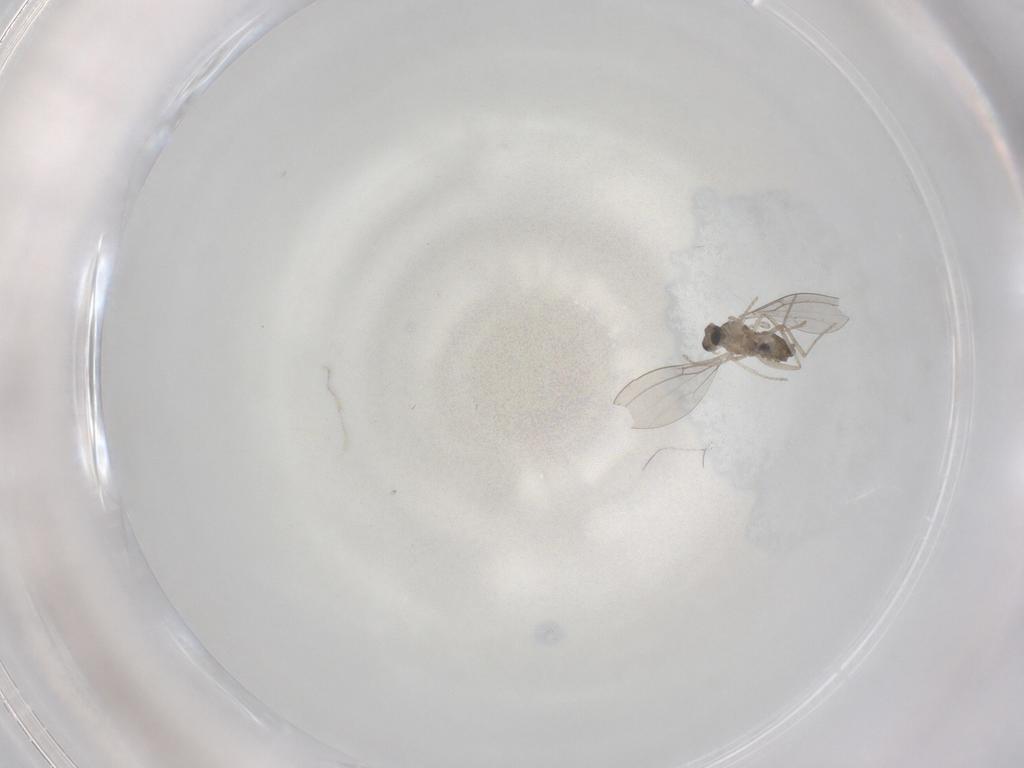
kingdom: Animalia
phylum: Arthropoda
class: Insecta
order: Diptera
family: Cecidomyiidae
